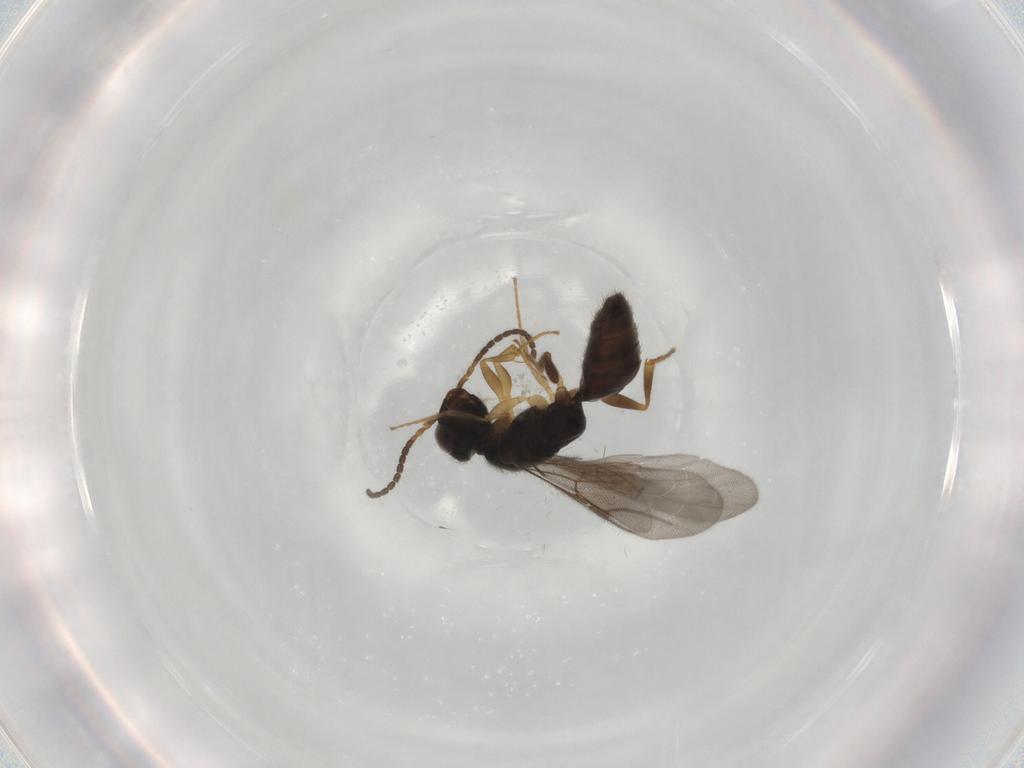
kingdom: Animalia
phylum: Arthropoda
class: Insecta
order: Hymenoptera
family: Bethylidae
